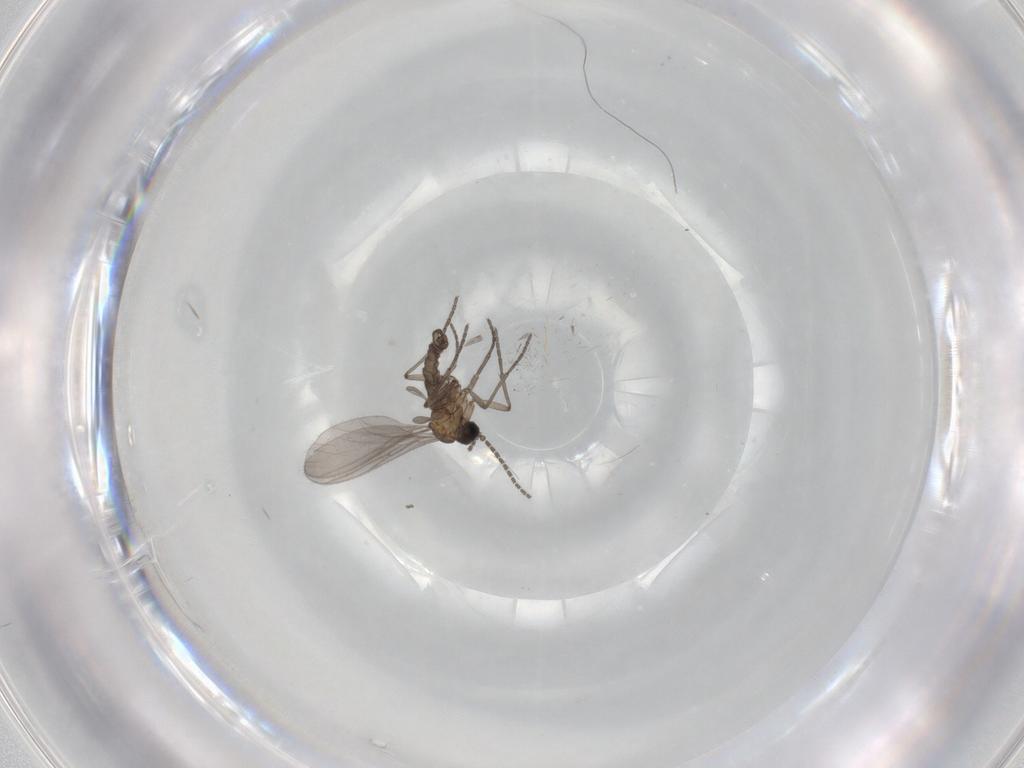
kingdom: Animalia
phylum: Arthropoda
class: Insecta
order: Diptera
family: Sciaridae
